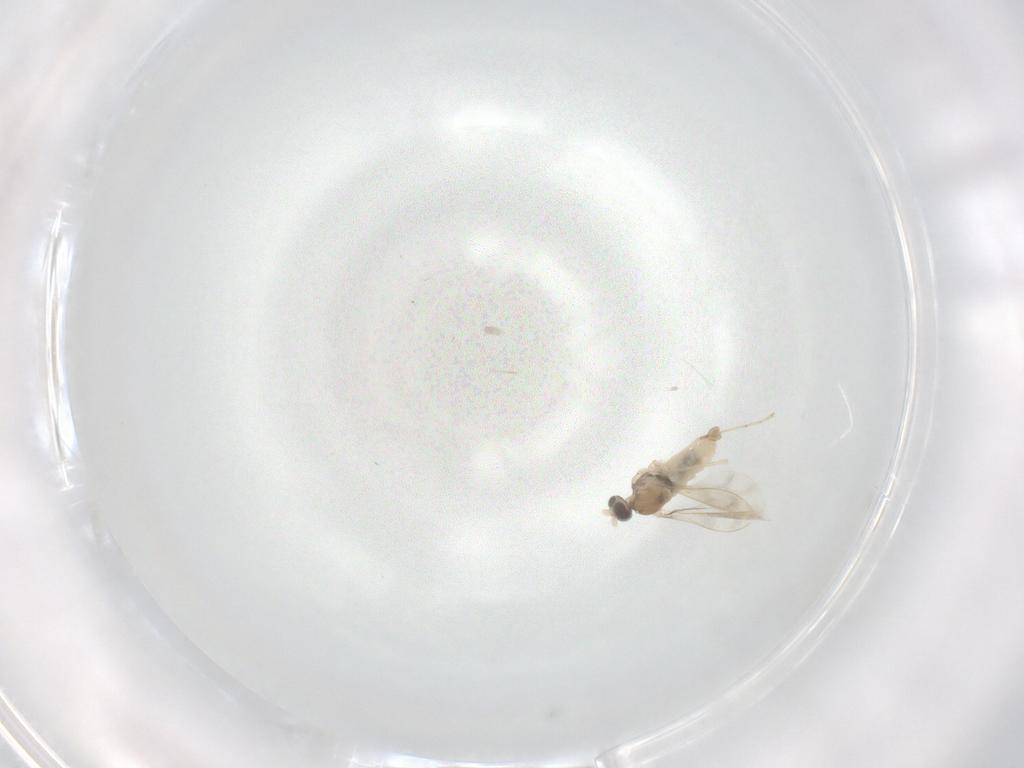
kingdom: Animalia
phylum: Arthropoda
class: Insecta
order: Diptera
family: Cecidomyiidae
